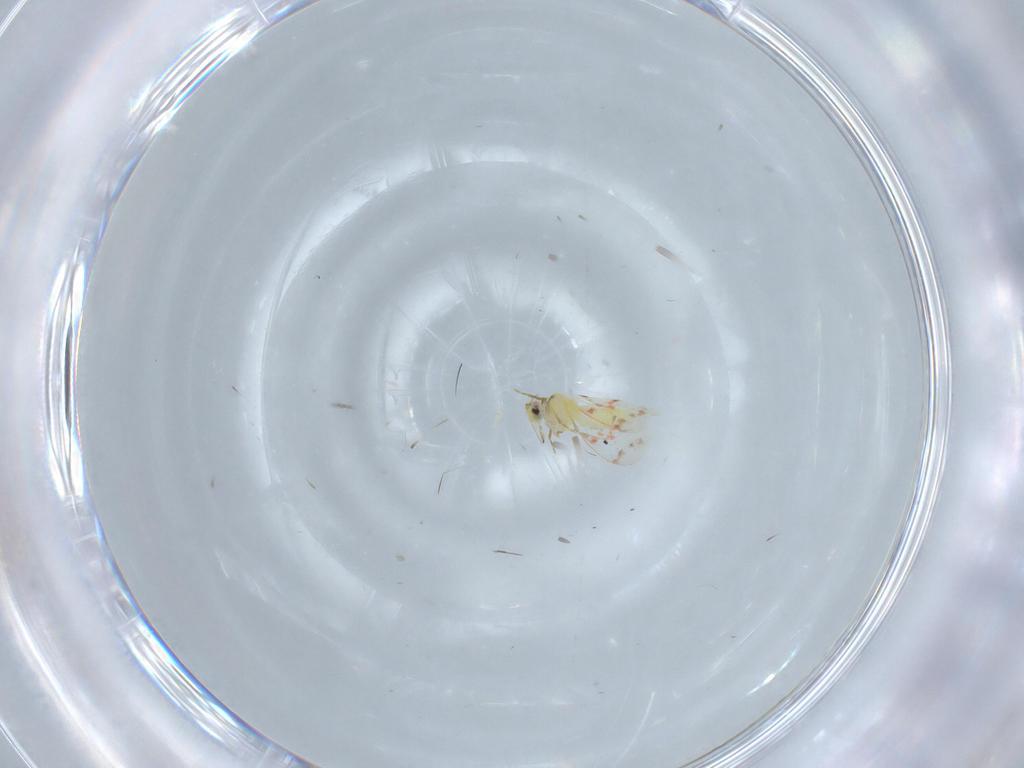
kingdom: Animalia
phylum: Arthropoda
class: Insecta
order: Hemiptera
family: Aleyrodidae
